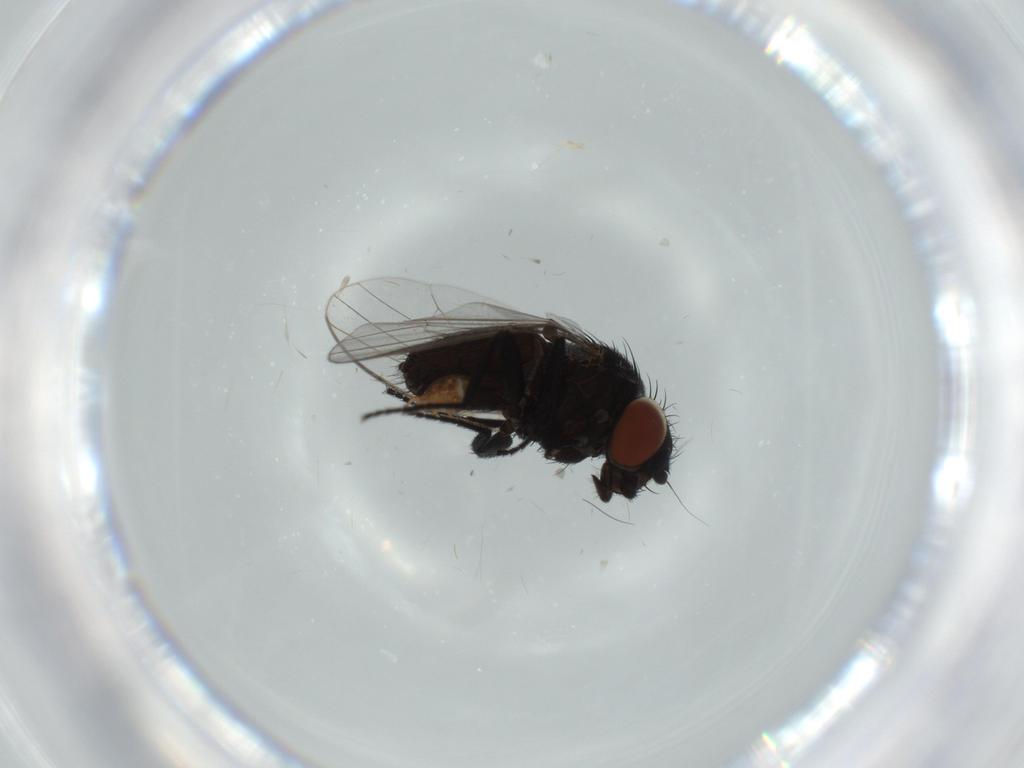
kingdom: Animalia
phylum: Arthropoda
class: Insecta
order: Diptera
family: Milichiidae
